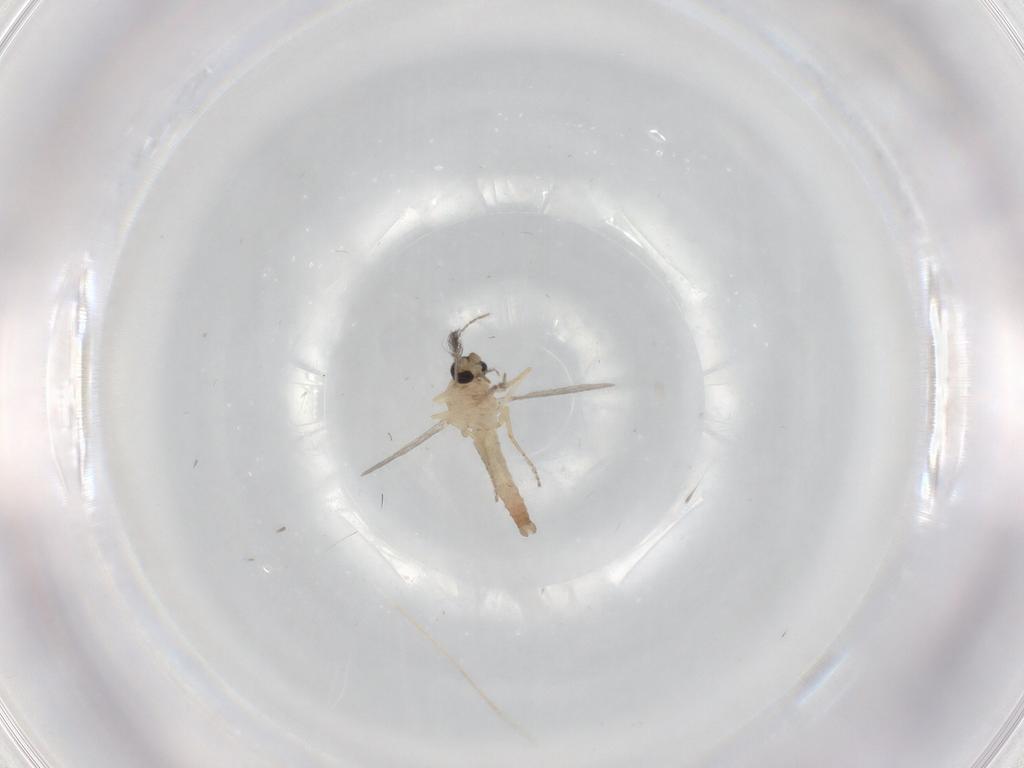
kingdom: Animalia
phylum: Arthropoda
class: Insecta
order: Diptera
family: Ceratopogonidae
